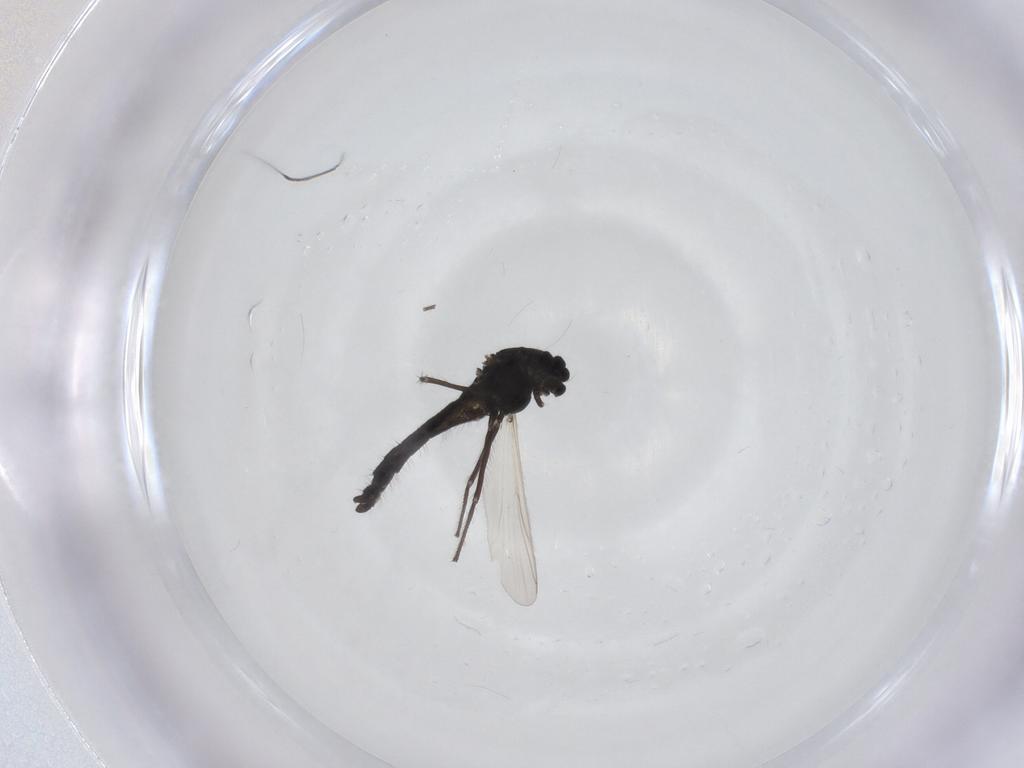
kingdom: Animalia
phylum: Arthropoda
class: Insecta
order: Diptera
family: Chironomidae
